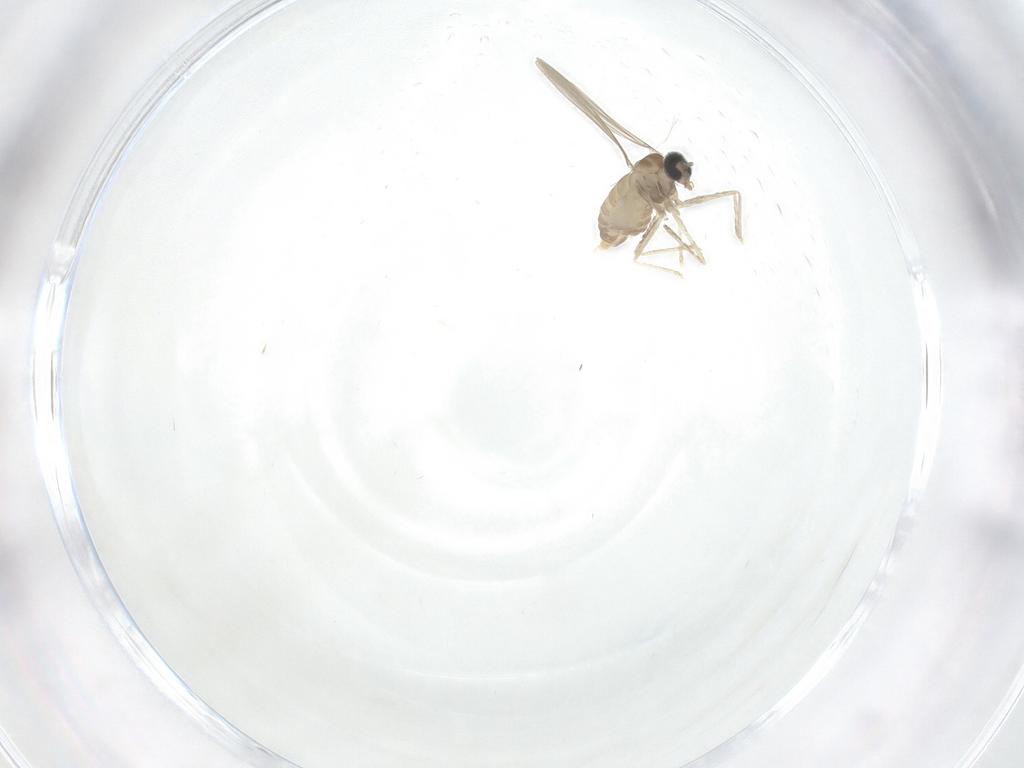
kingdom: Animalia
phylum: Arthropoda
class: Insecta
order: Diptera
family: Cecidomyiidae
